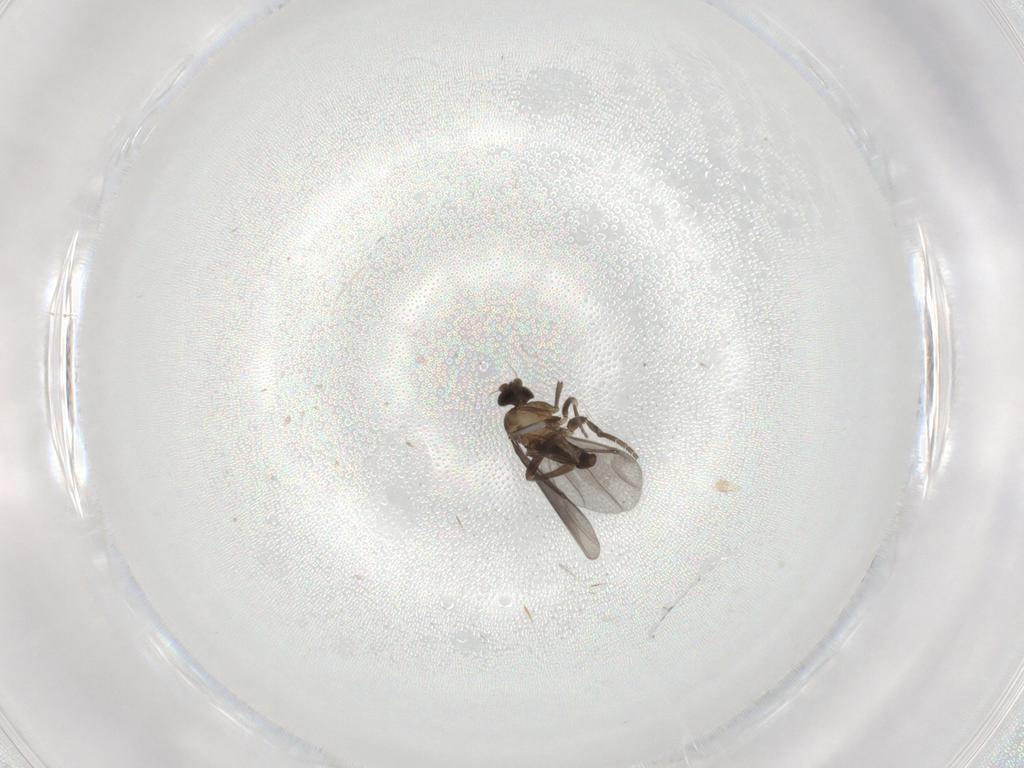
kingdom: Animalia
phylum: Arthropoda
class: Insecta
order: Diptera
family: Phoridae
